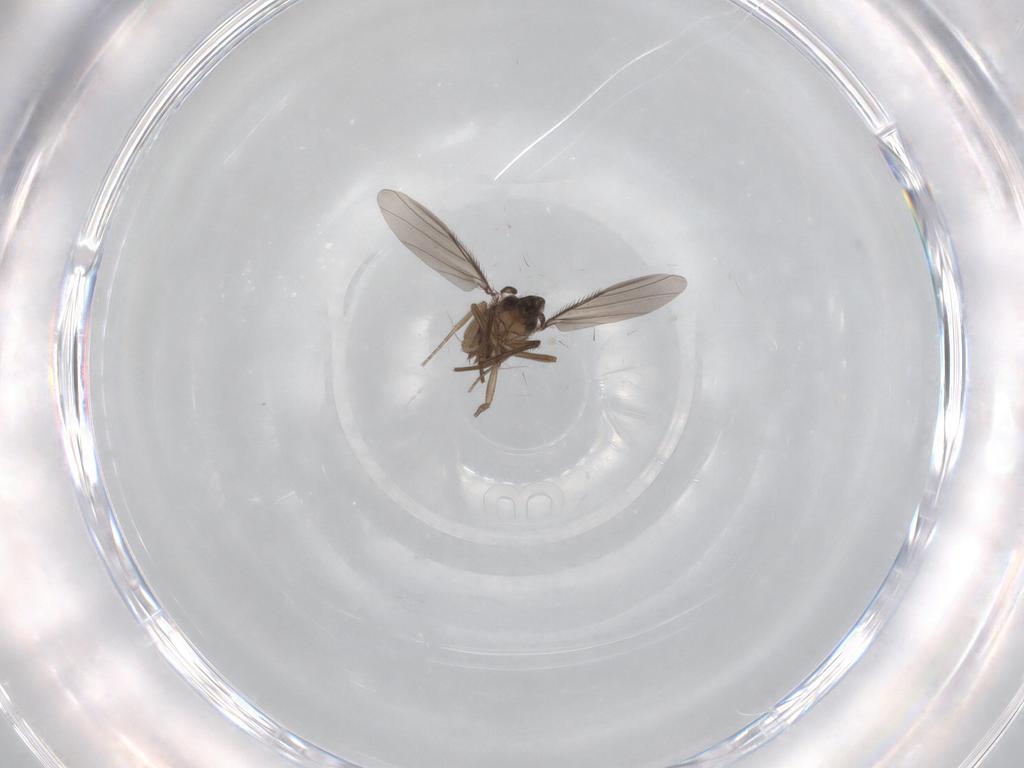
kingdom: Animalia
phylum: Arthropoda
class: Insecta
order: Diptera
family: Phoridae
